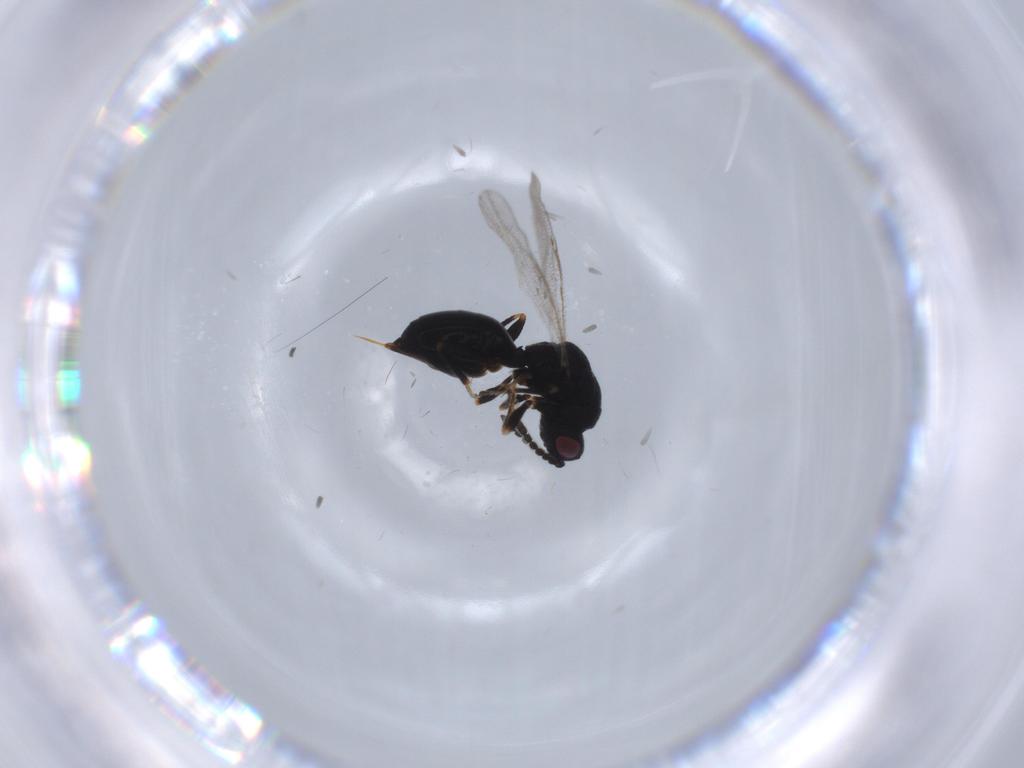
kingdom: Animalia
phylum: Arthropoda
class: Insecta
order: Hymenoptera
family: Eurytomidae
